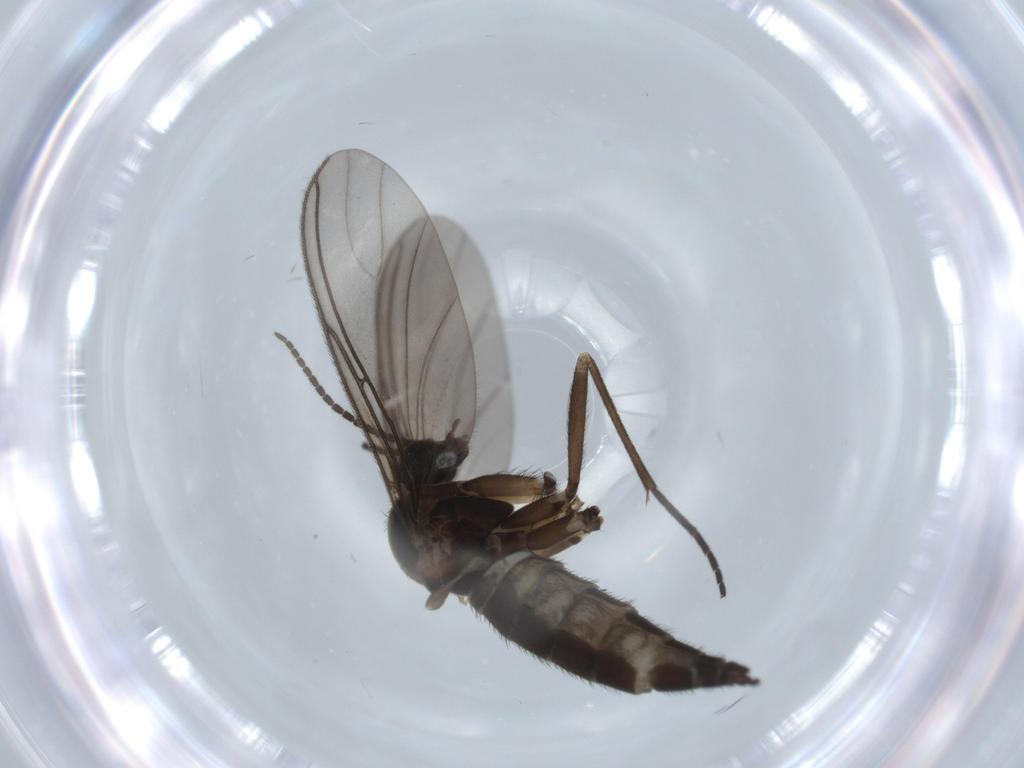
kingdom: Animalia
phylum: Arthropoda
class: Insecta
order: Diptera
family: Sciaridae
